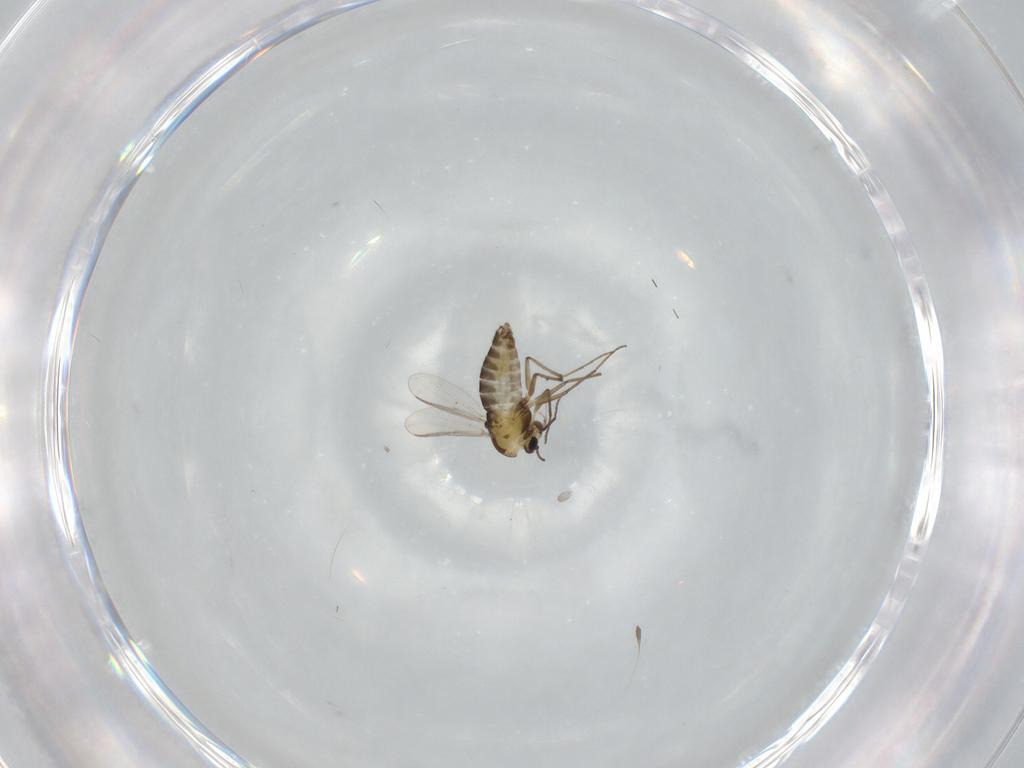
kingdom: Animalia
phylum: Arthropoda
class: Insecta
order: Diptera
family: Chironomidae
